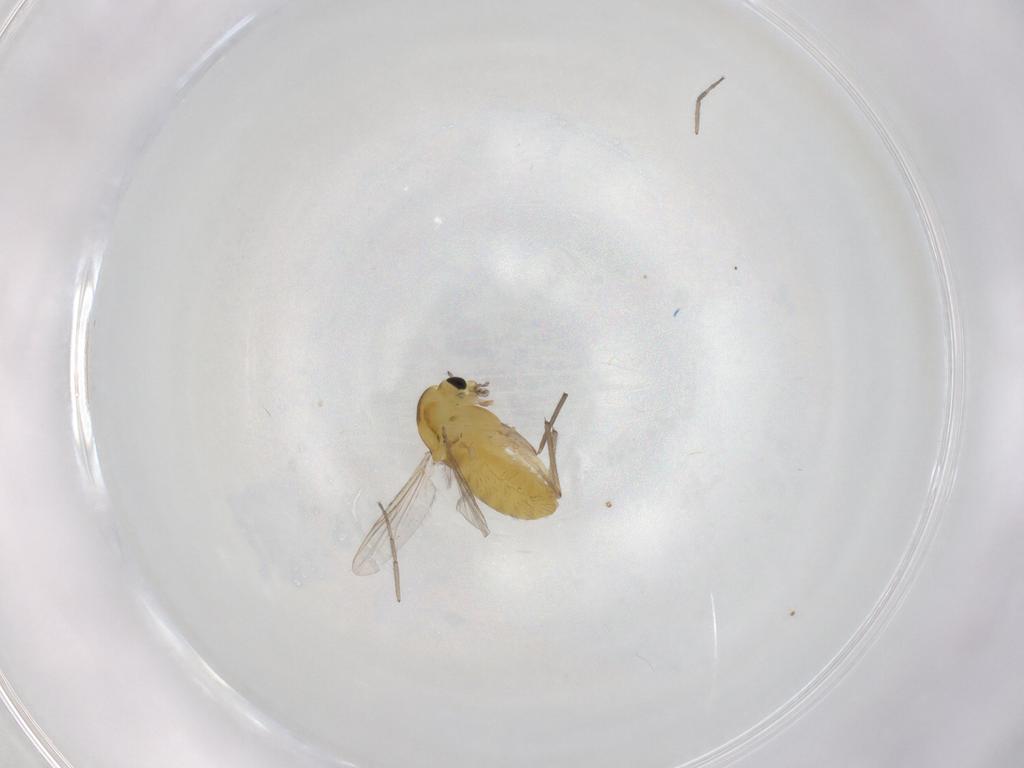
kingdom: Animalia
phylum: Arthropoda
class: Insecta
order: Diptera
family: Chironomidae
